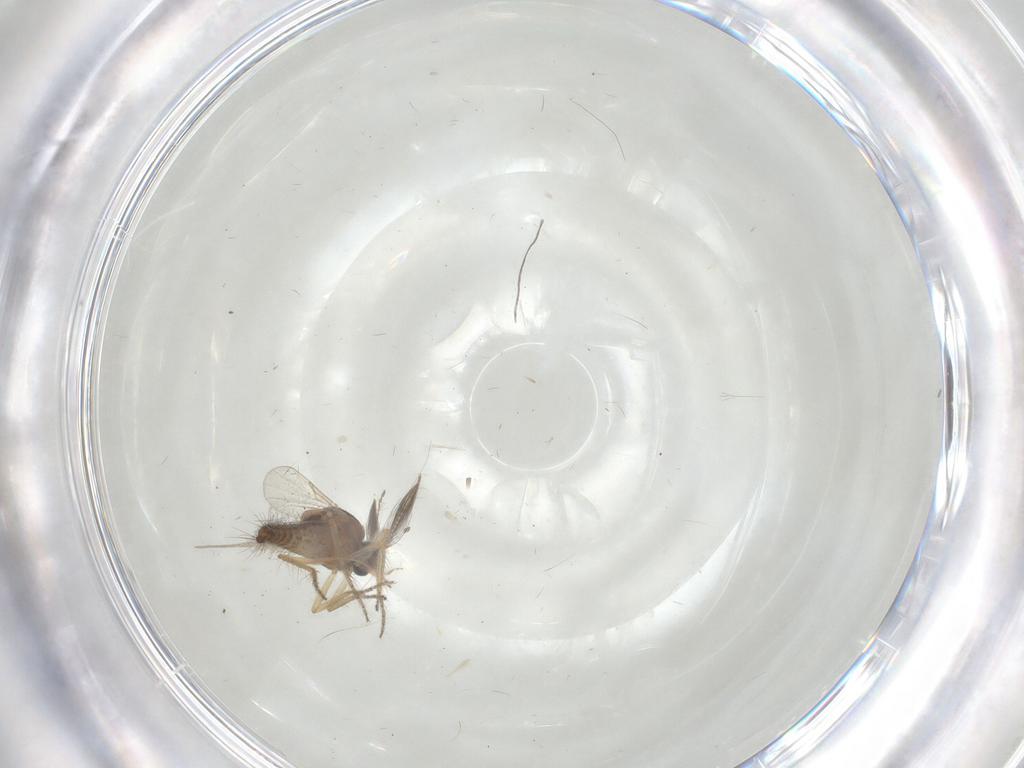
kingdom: Animalia
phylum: Arthropoda
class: Insecta
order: Diptera
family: Ceratopogonidae
